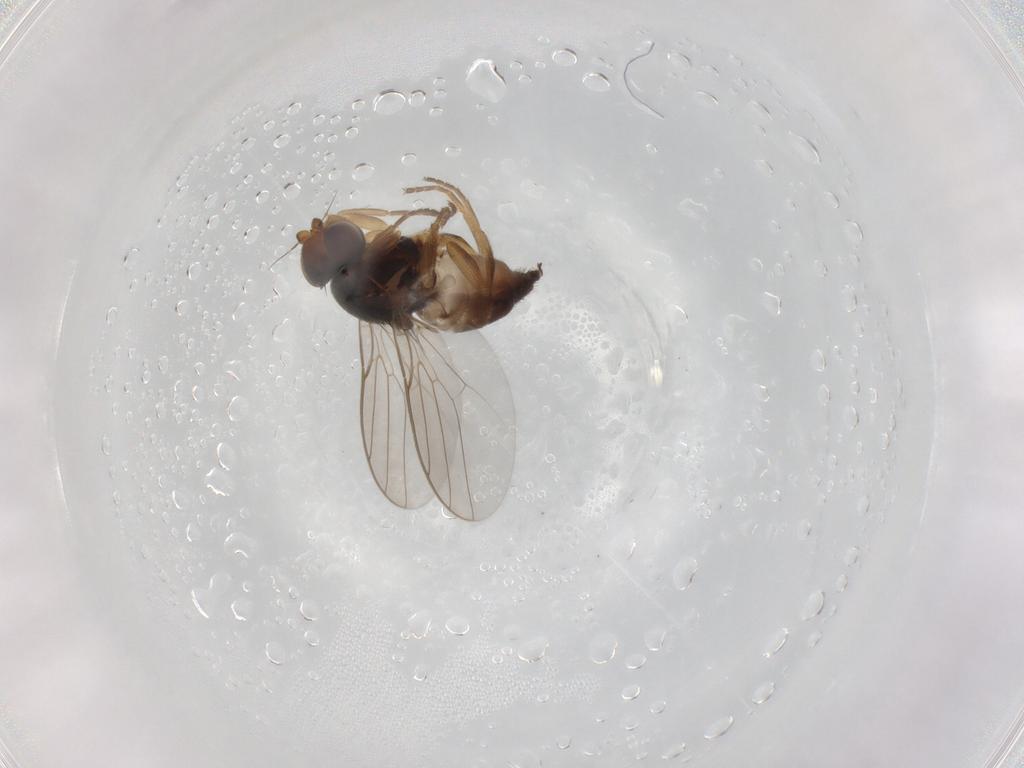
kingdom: Animalia
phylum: Arthropoda
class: Insecta
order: Diptera
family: Chloropidae
